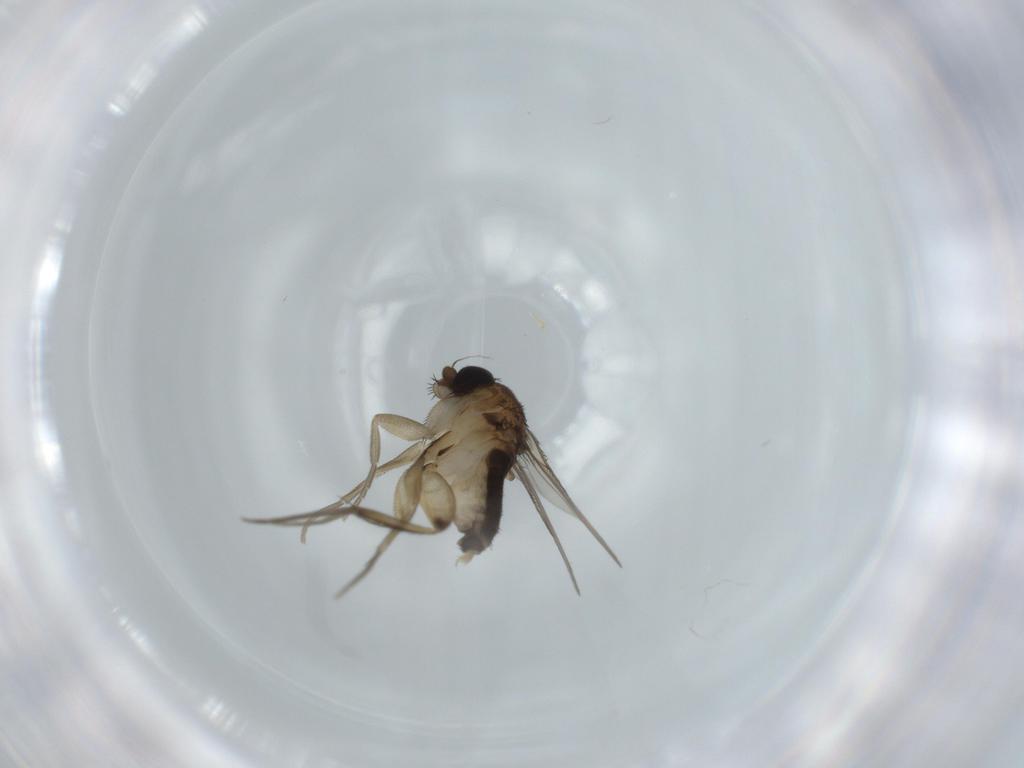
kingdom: Animalia
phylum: Arthropoda
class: Insecta
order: Diptera
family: Phoridae
